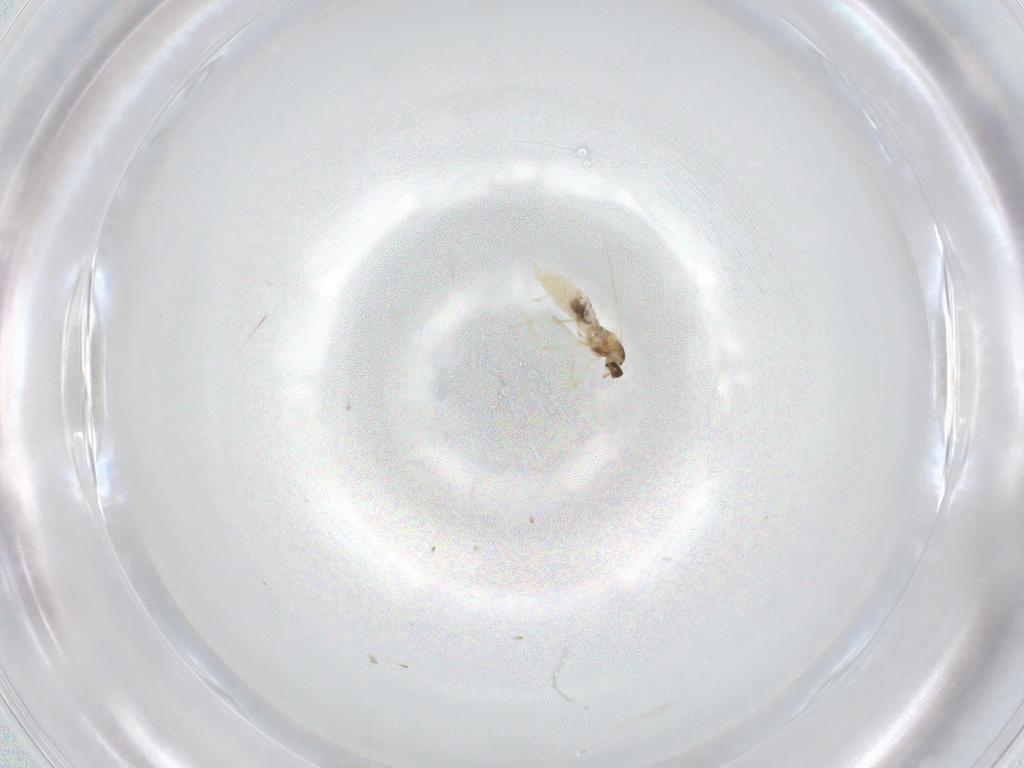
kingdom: Animalia
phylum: Arthropoda
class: Insecta
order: Diptera
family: Cecidomyiidae
